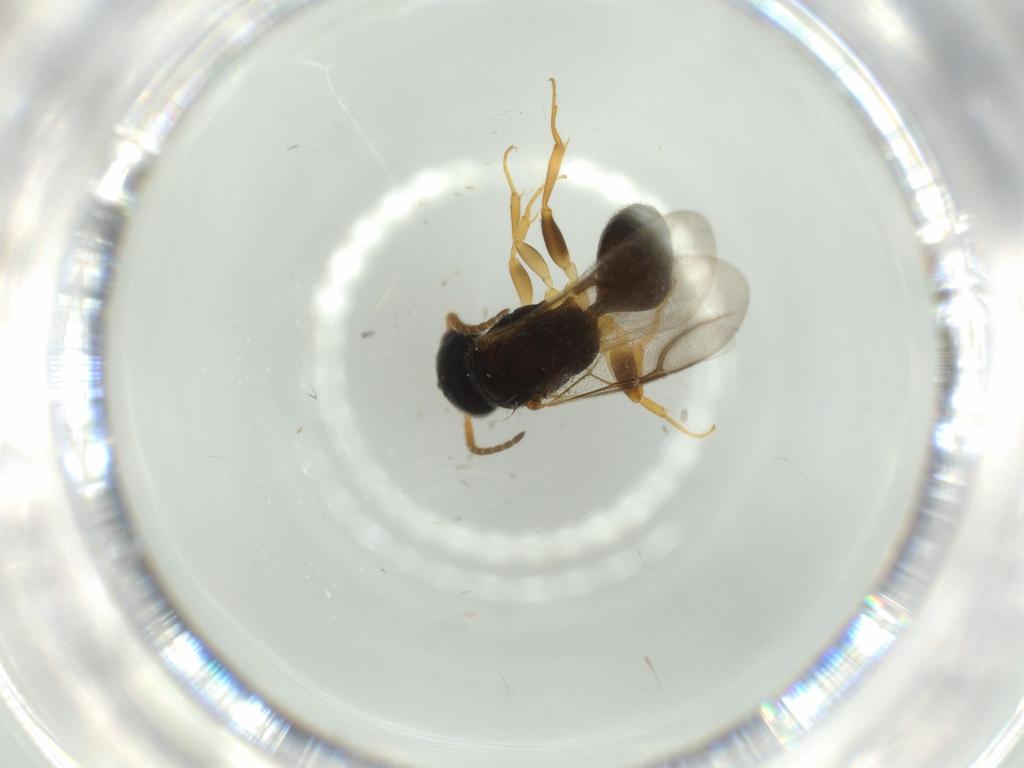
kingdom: Animalia
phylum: Arthropoda
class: Insecta
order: Hymenoptera
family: Bethylidae
